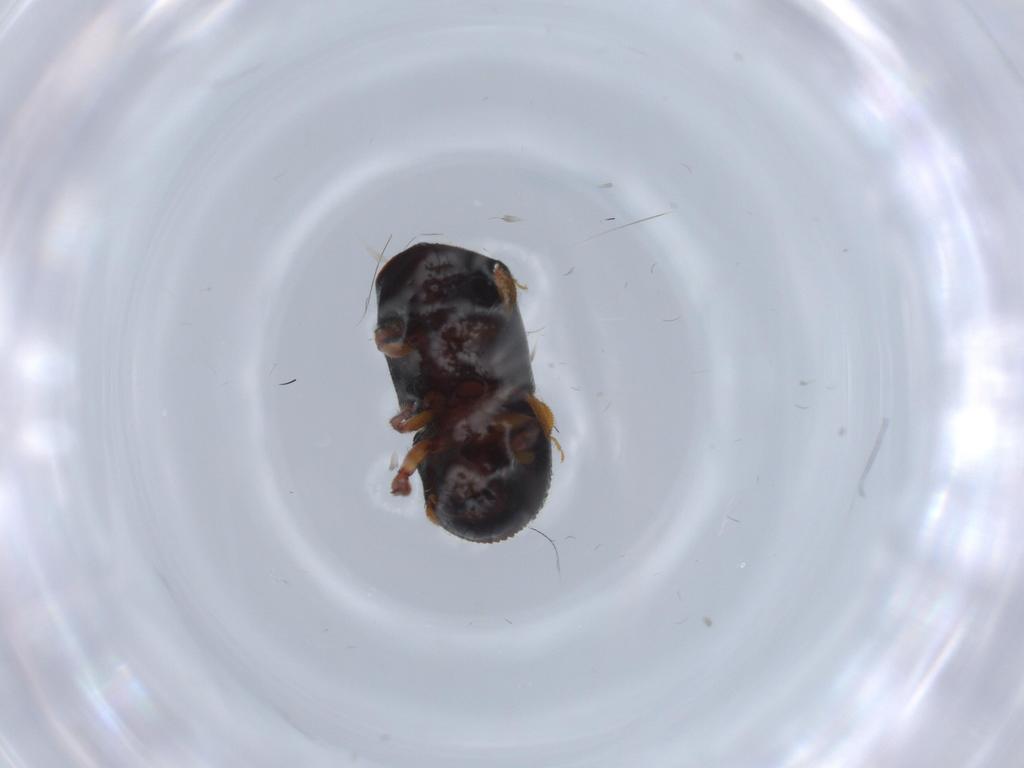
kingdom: Animalia
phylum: Arthropoda
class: Insecta
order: Coleoptera
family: Curculionidae
